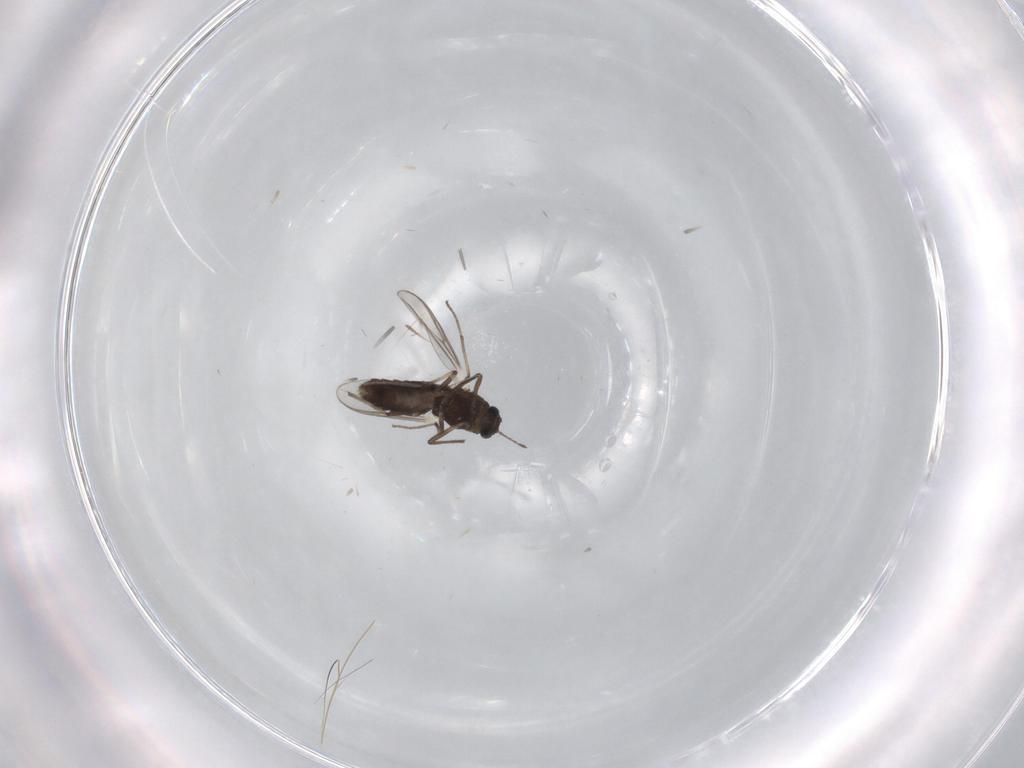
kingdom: Animalia
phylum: Arthropoda
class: Insecta
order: Diptera
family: Chironomidae
